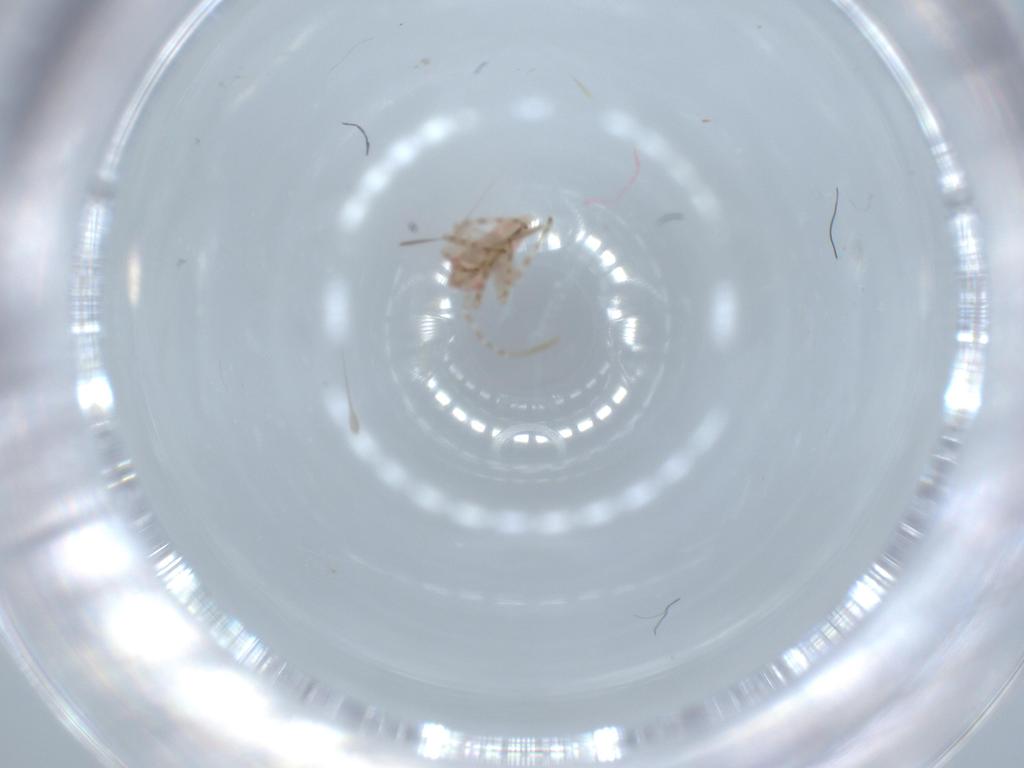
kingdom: Animalia
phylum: Arthropoda
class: Insecta
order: Hemiptera
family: Miridae
